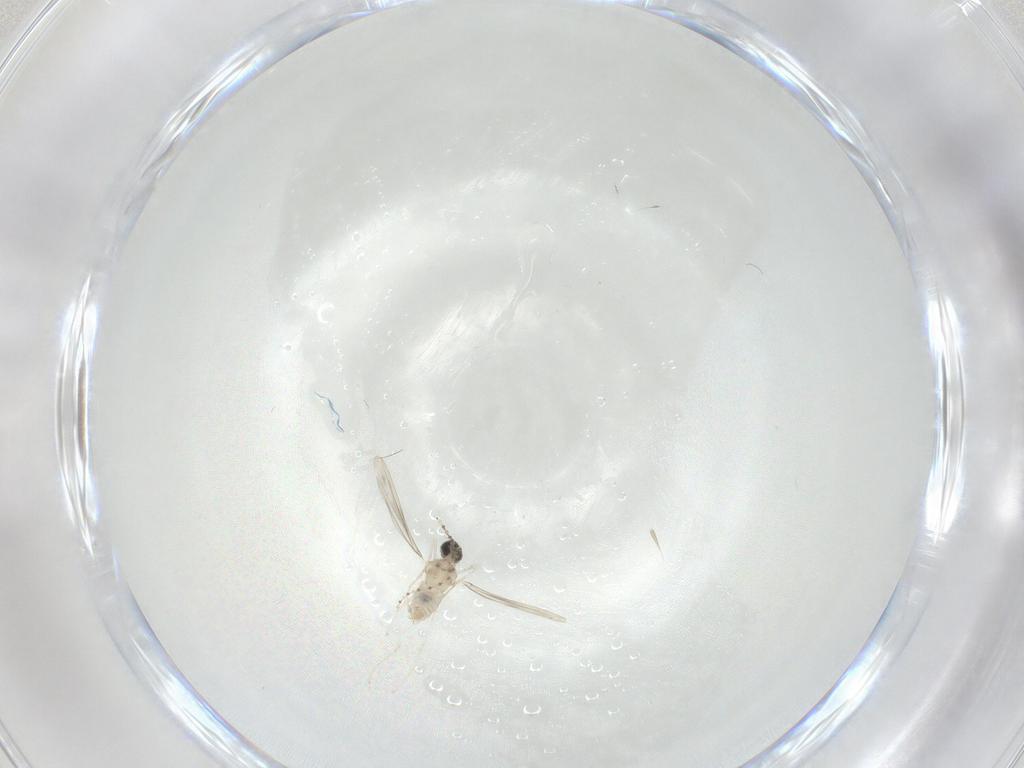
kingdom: Animalia
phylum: Arthropoda
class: Insecta
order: Diptera
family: Cecidomyiidae
